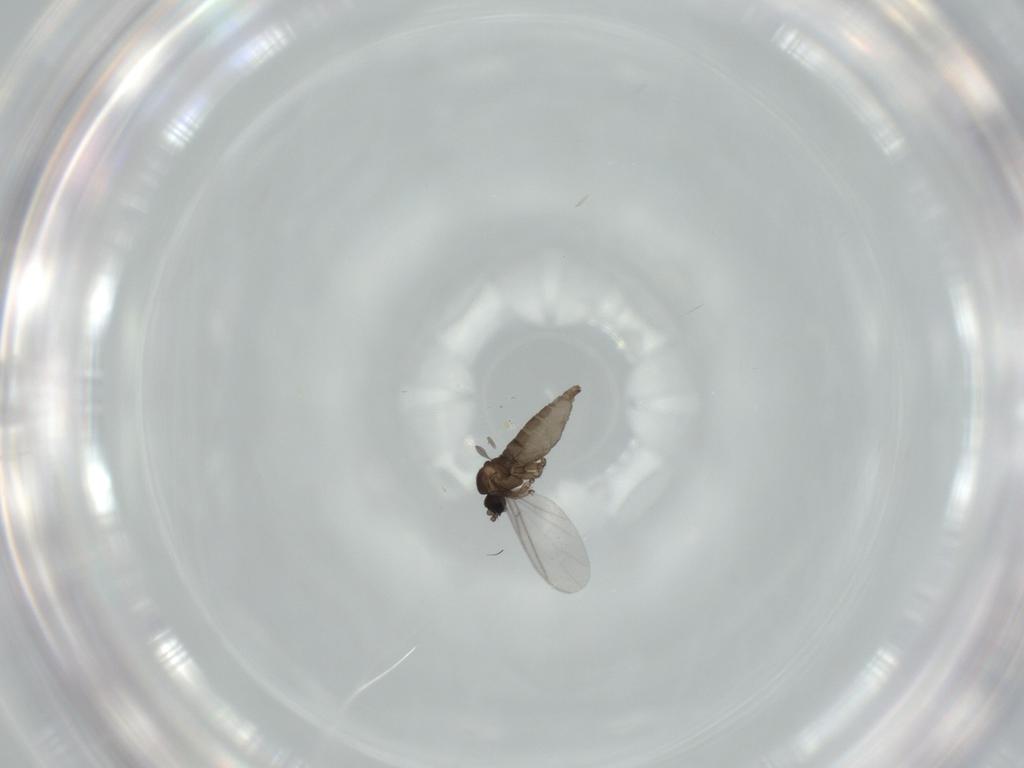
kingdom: Animalia
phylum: Arthropoda
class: Insecta
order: Diptera
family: Sciaridae
